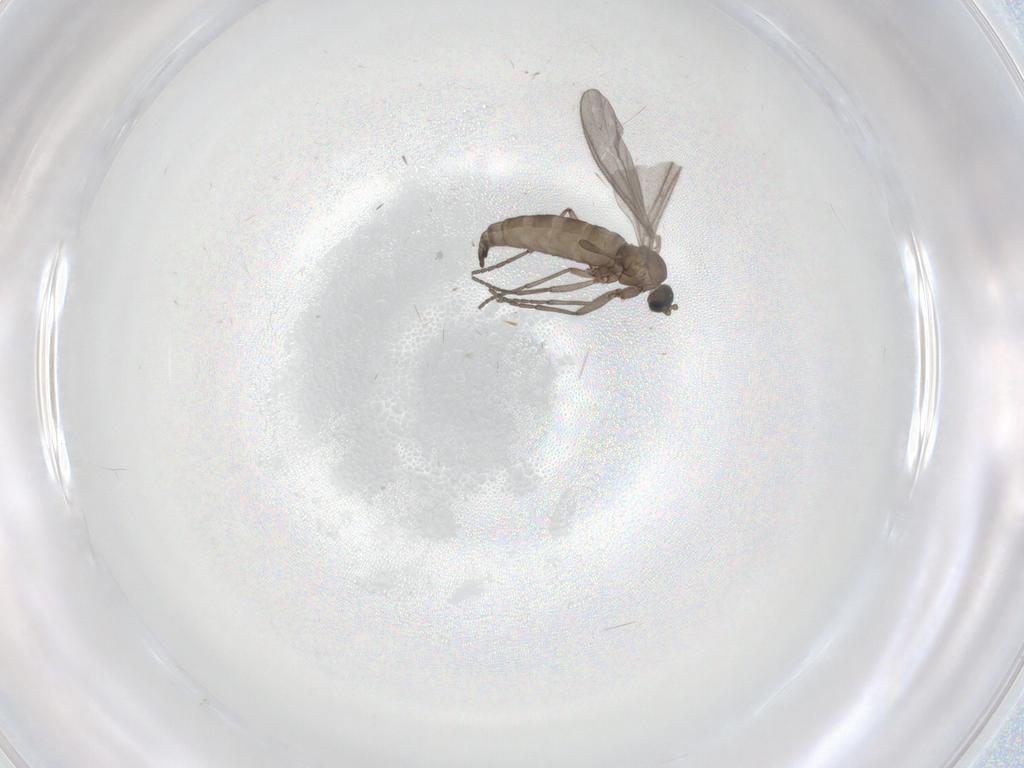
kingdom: Animalia
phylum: Arthropoda
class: Insecta
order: Diptera
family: Sciaridae
